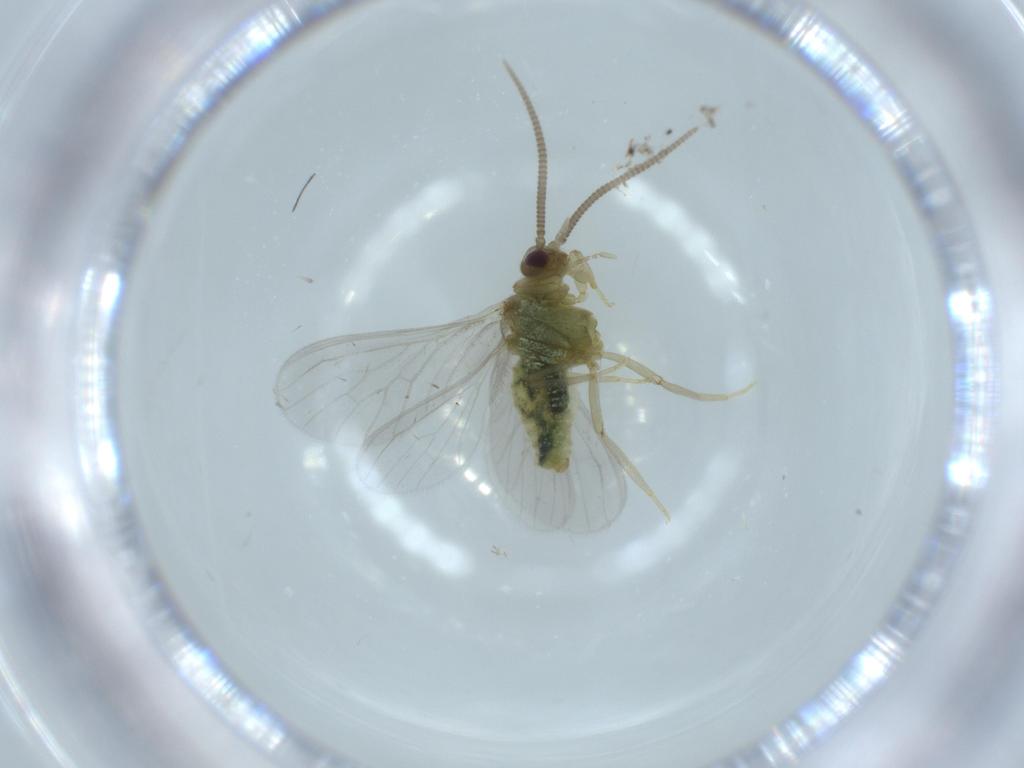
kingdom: Animalia
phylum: Arthropoda
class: Insecta
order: Neuroptera
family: Coniopterygidae
